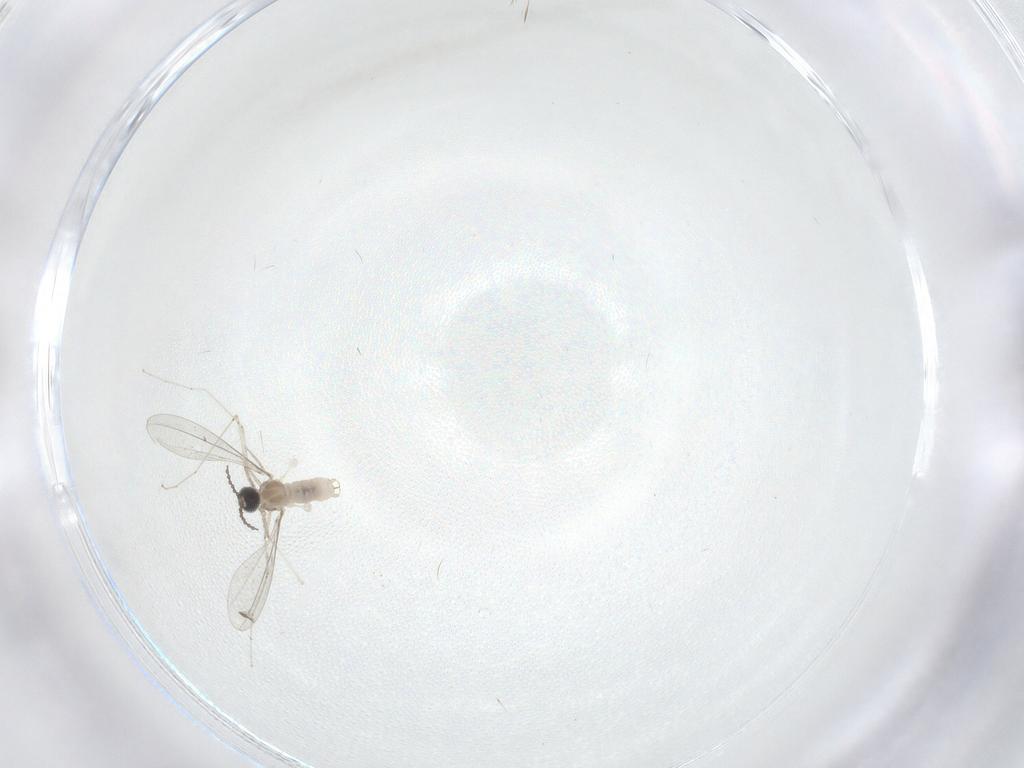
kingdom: Animalia
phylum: Arthropoda
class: Insecta
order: Diptera
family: Cecidomyiidae
